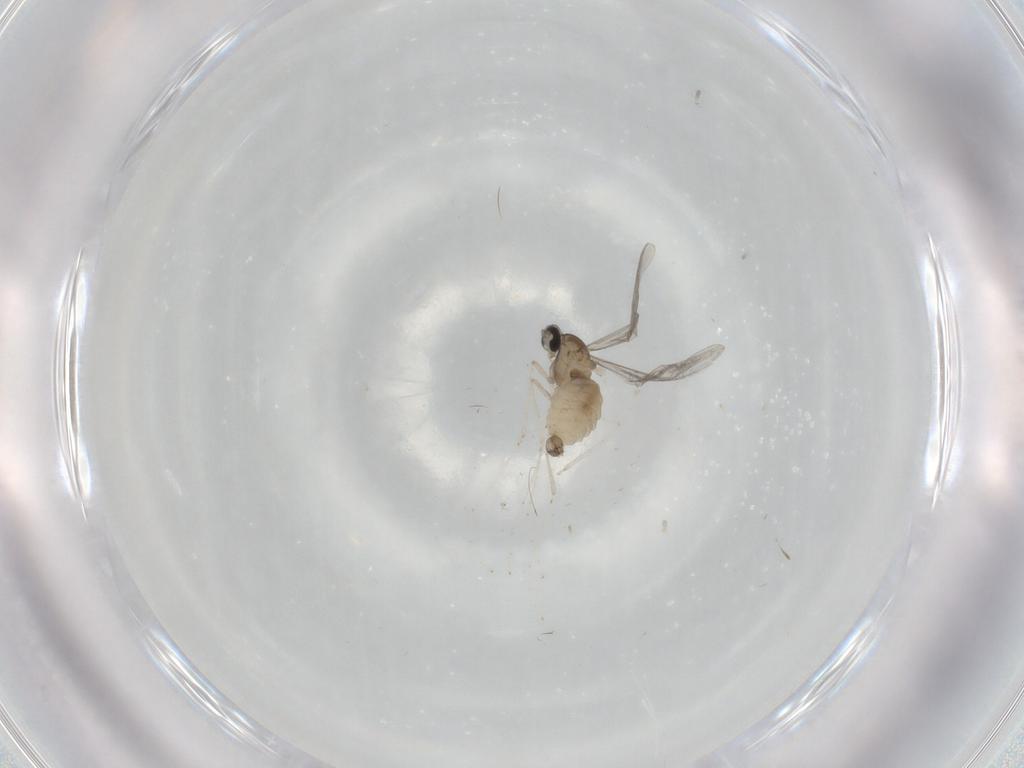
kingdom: Animalia
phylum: Arthropoda
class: Insecta
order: Diptera
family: Cecidomyiidae
